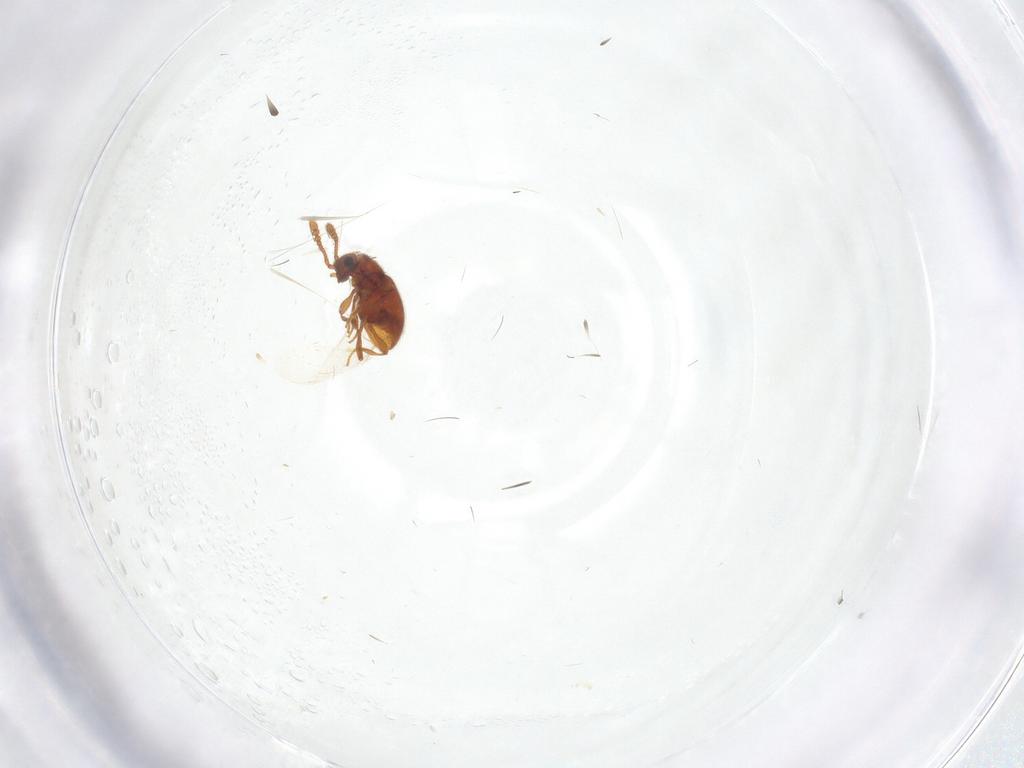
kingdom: Animalia
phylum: Arthropoda
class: Insecta
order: Coleoptera
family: Staphylinidae
